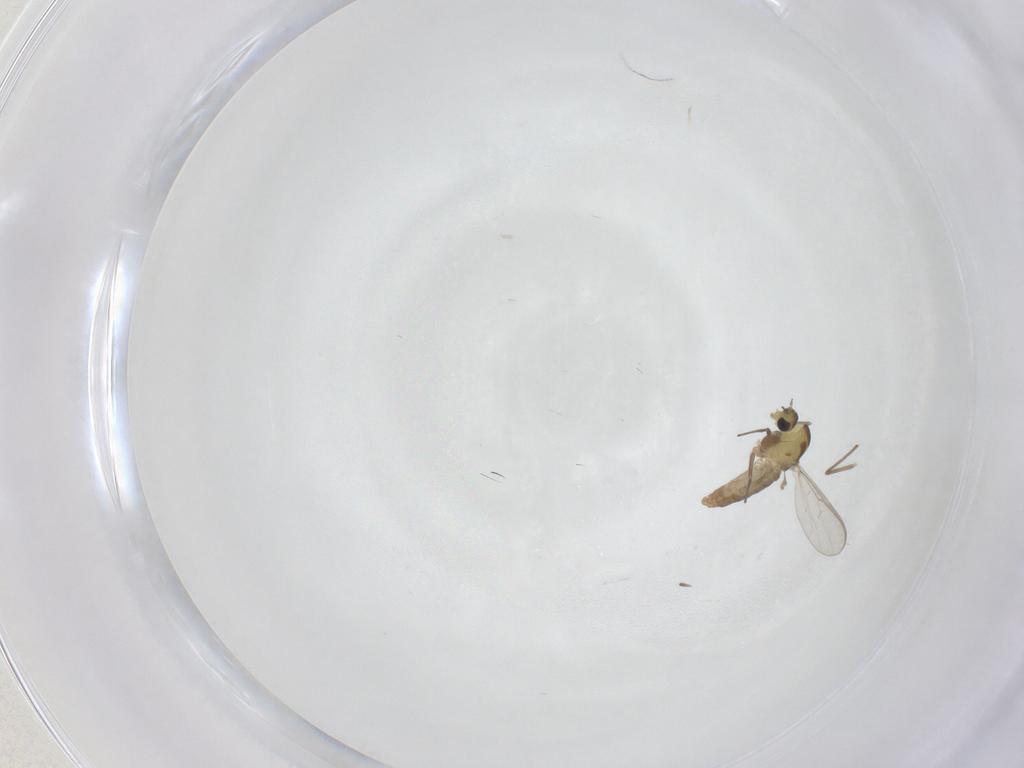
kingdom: Animalia
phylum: Arthropoda
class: Insecta
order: Diptera
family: Chironomidae
